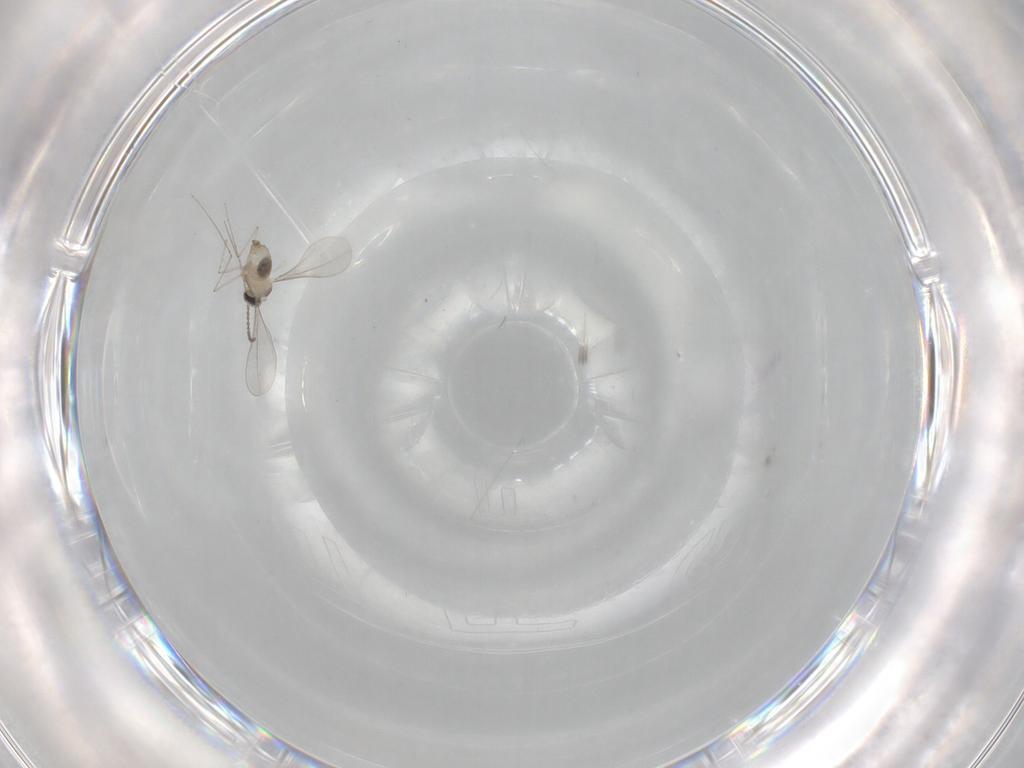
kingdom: Animalia
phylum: Arthropoda
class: Insecta
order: Diptera
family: Cecidomyiidae
